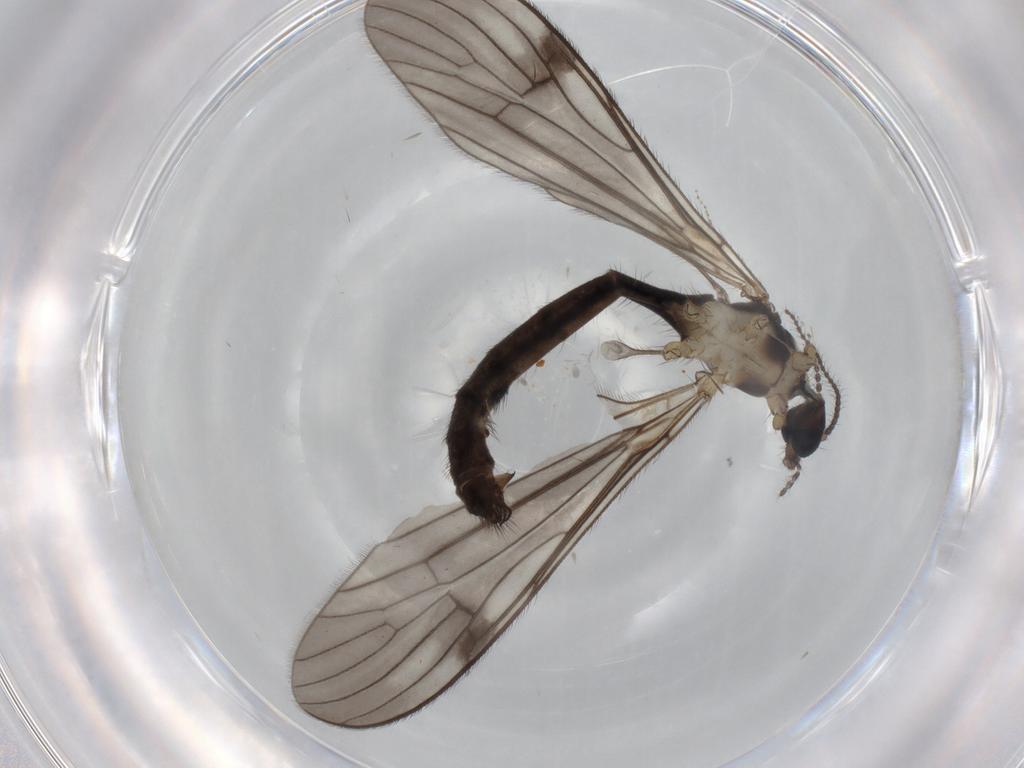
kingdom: Animalia
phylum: Arthropoda
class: Insecta
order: Diptera
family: Limoniidae
